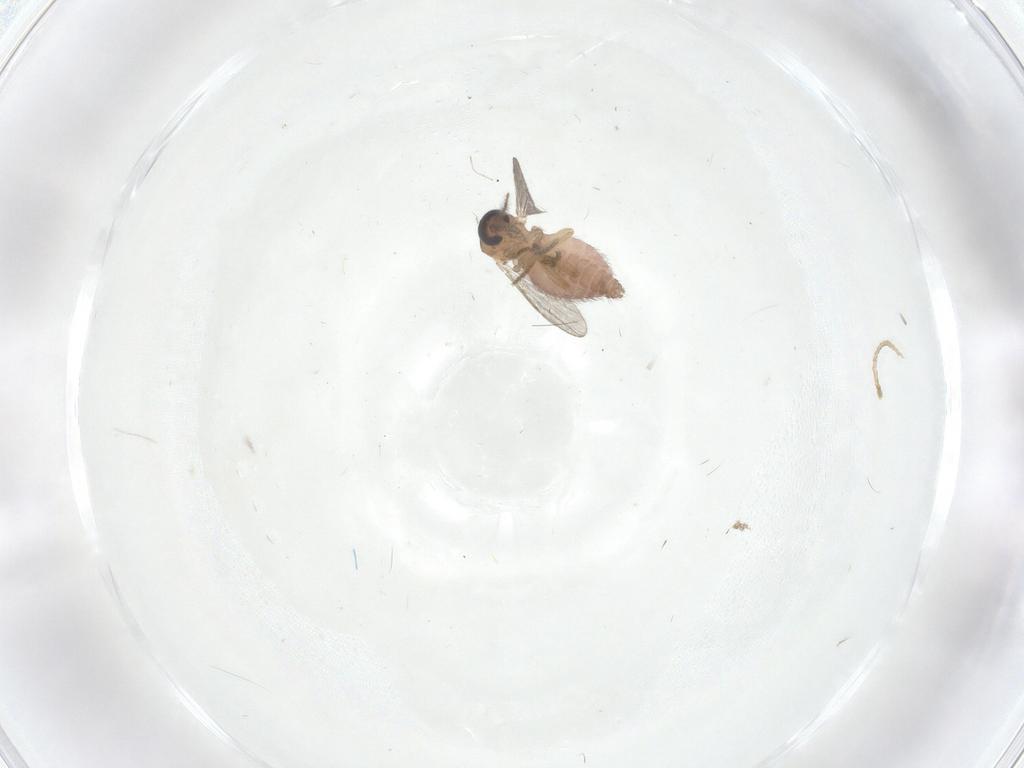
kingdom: Animalia
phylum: Arthropoda
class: Insecta
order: Diptera
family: Ceratopogonidae
